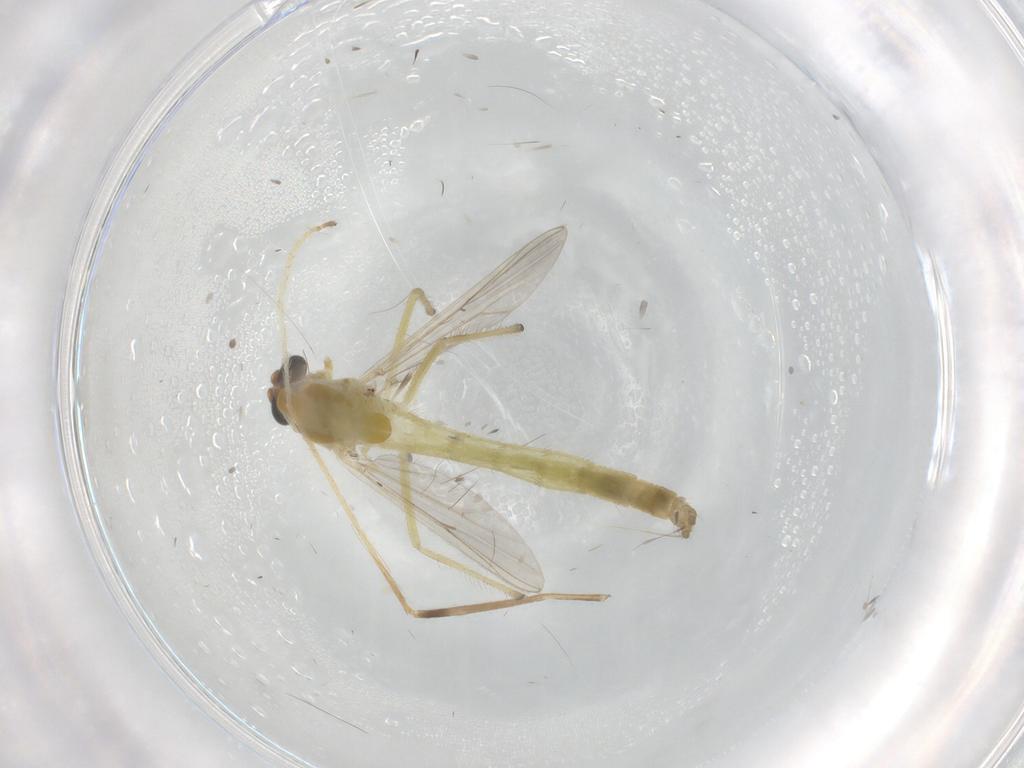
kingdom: Animalia
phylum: Arthropoda
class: Insecta
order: Diptera
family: Chironomidae
